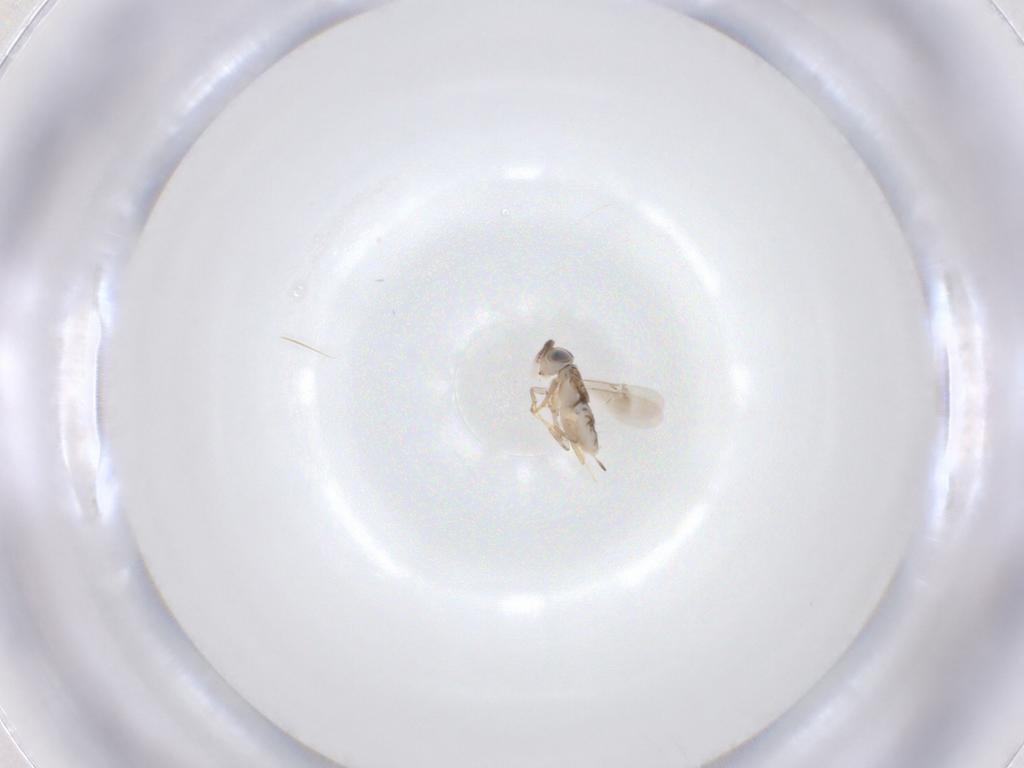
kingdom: Animalia
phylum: Arthropoda
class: Insecta
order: Hymenoptera
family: Encyrtidae
